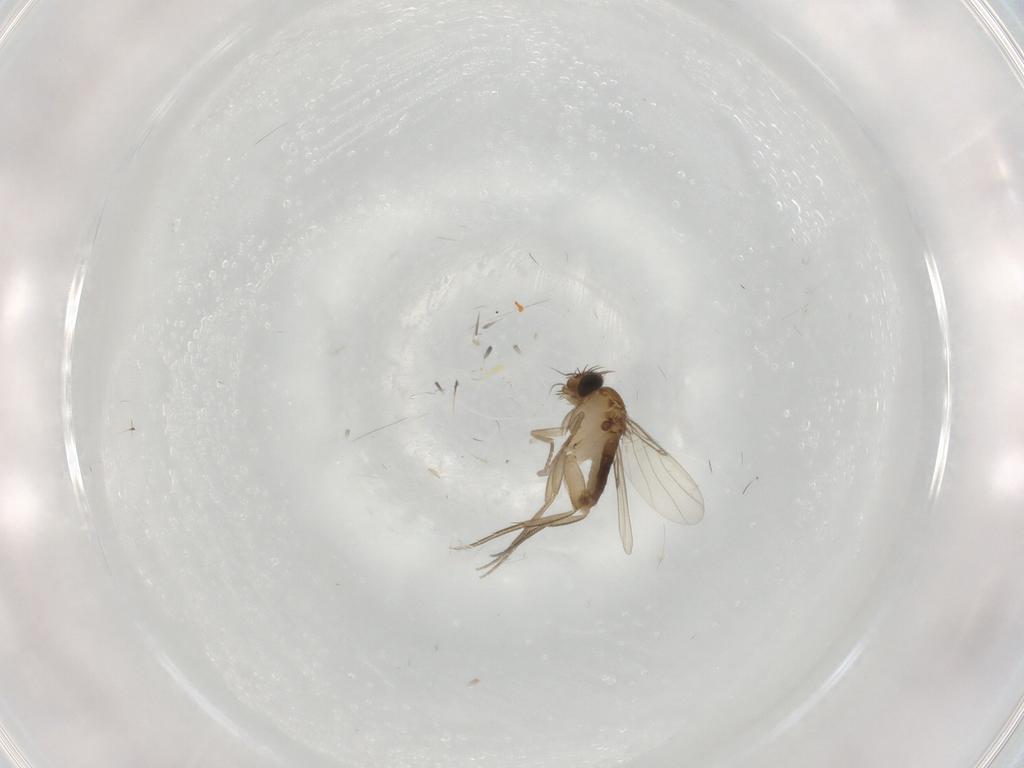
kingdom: Animalia
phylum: Arthropoda
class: Insecta
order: Diptera
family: Phoridae
